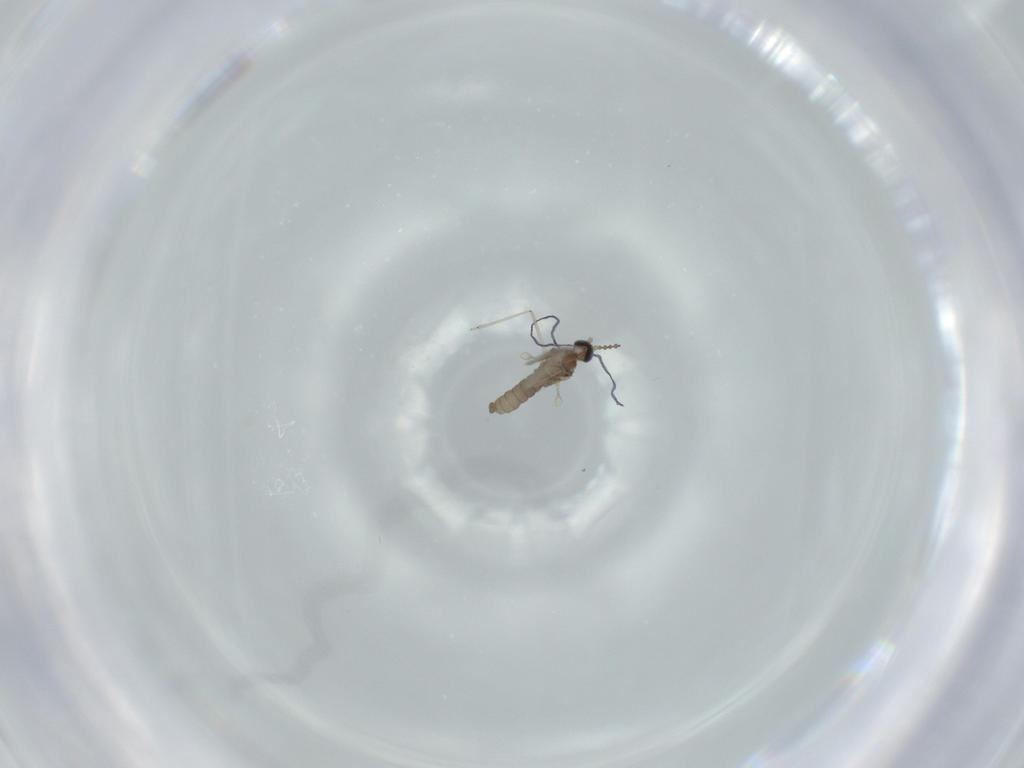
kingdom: Animalia
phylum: Arthropoda
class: Insecta
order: Diptera
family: Cecidomyiidae
